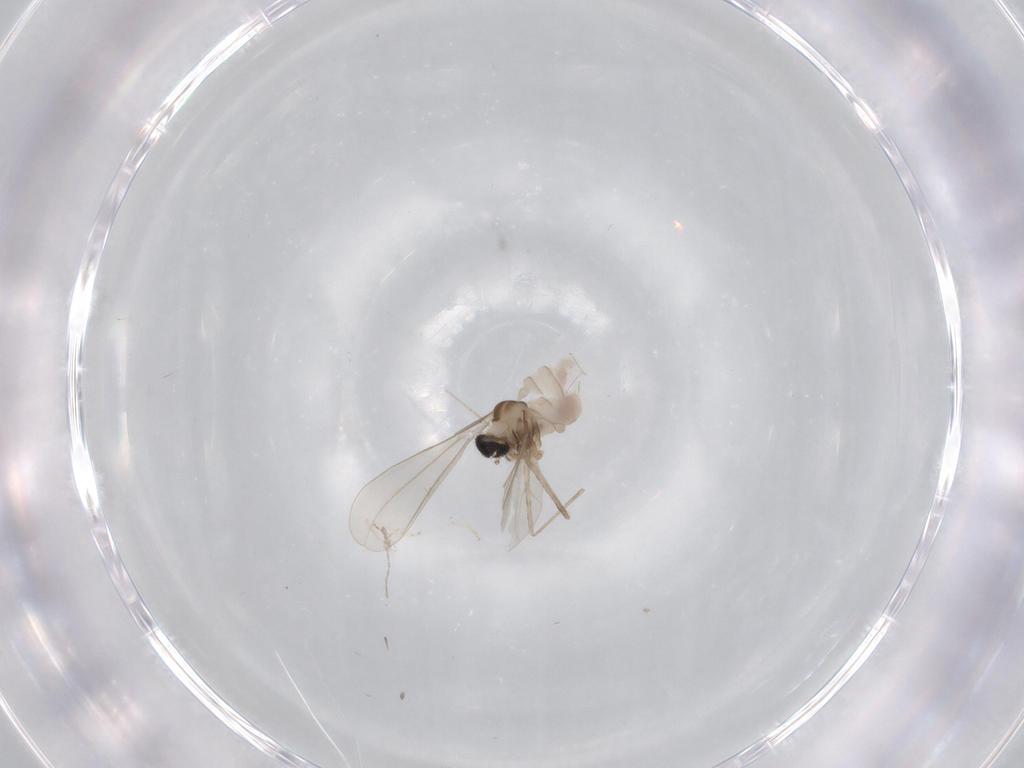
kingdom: Animalia
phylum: Arthropoda
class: Insecta
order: Diptera
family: Cecidomyiidae
